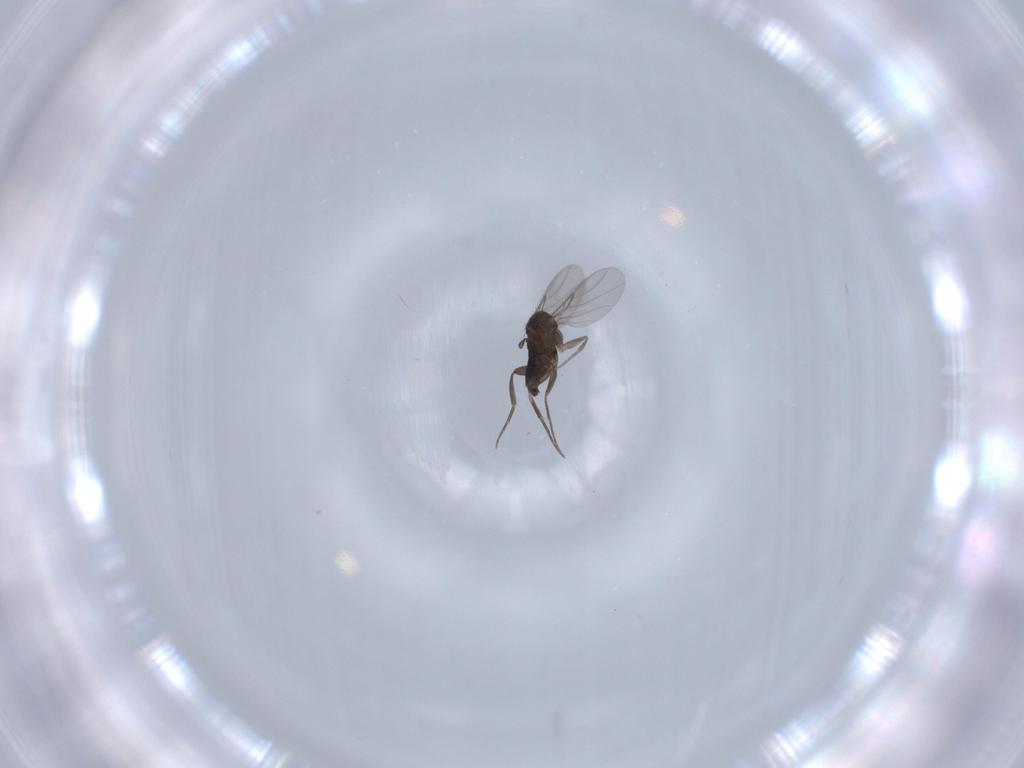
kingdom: Animalia
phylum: Arthropoda
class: Insecta
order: Diptera
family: Phoridae
